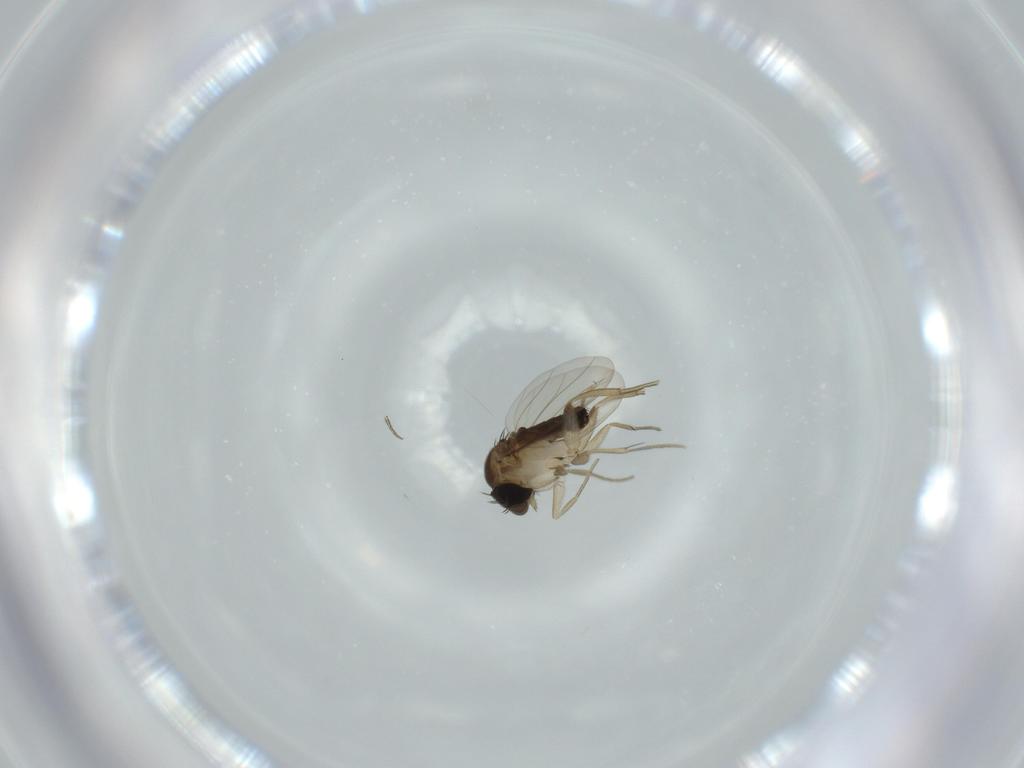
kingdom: Animalia
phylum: Arthropoda
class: Insecta
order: Diptera
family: Phoridae
